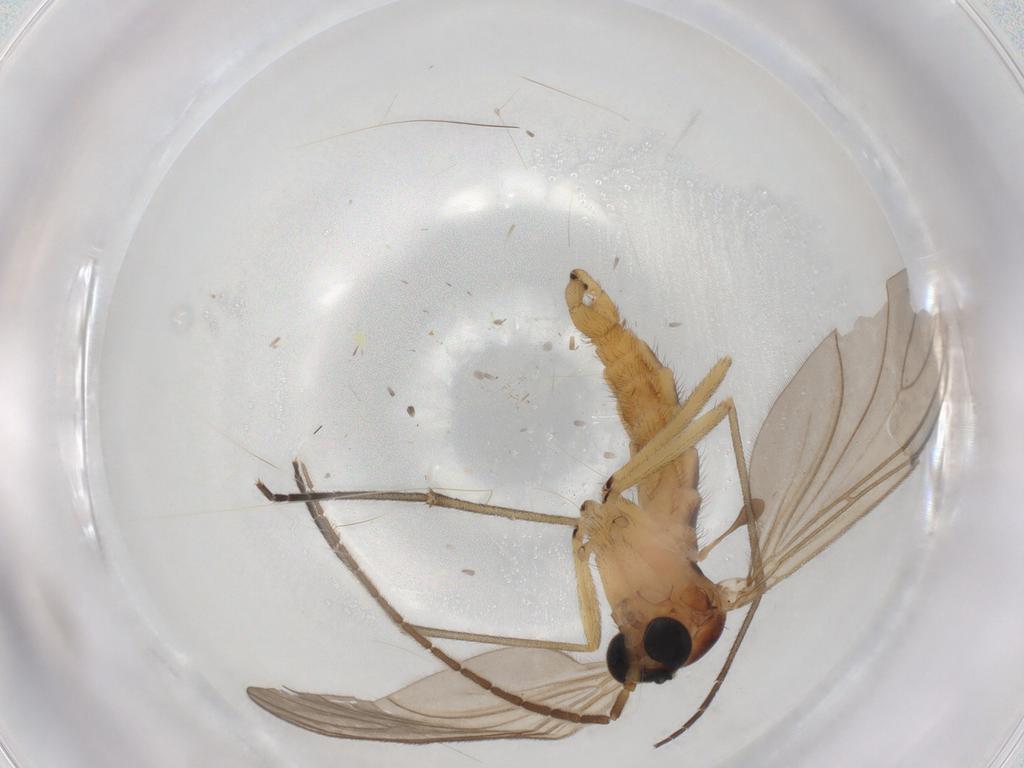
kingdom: Animalia
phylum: Arthropoda
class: Insecta
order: Diptera
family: Sciaridae
